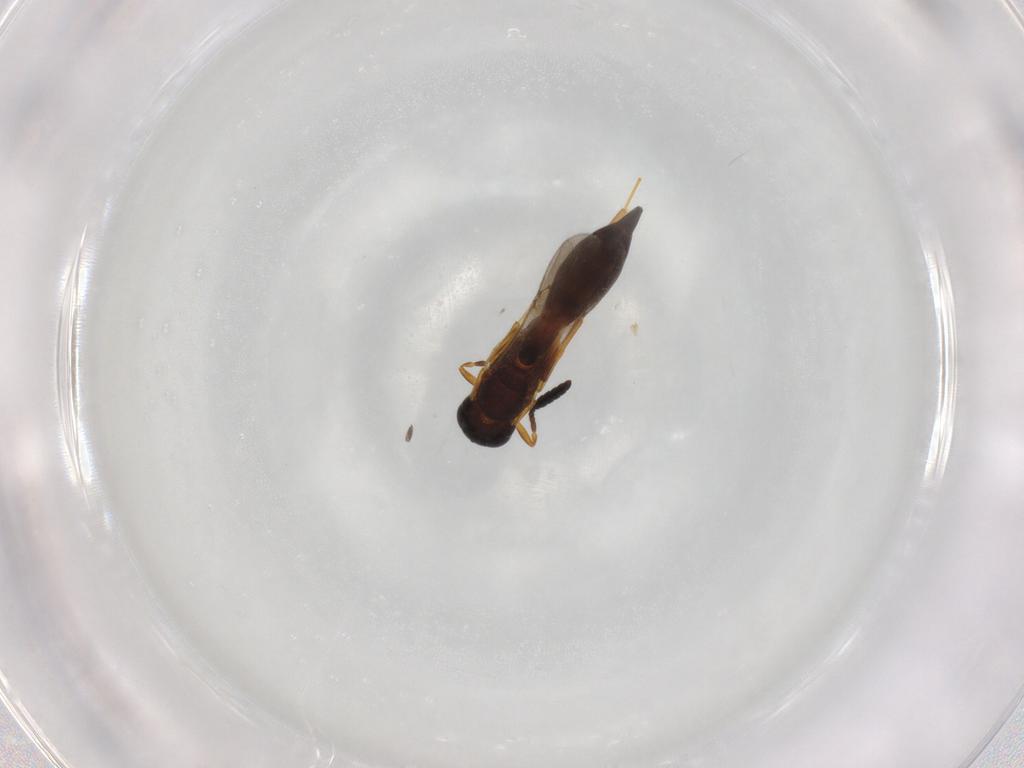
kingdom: Animalia
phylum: Arthropoda
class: Insecta
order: Hymenoptera
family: Scelionidae
